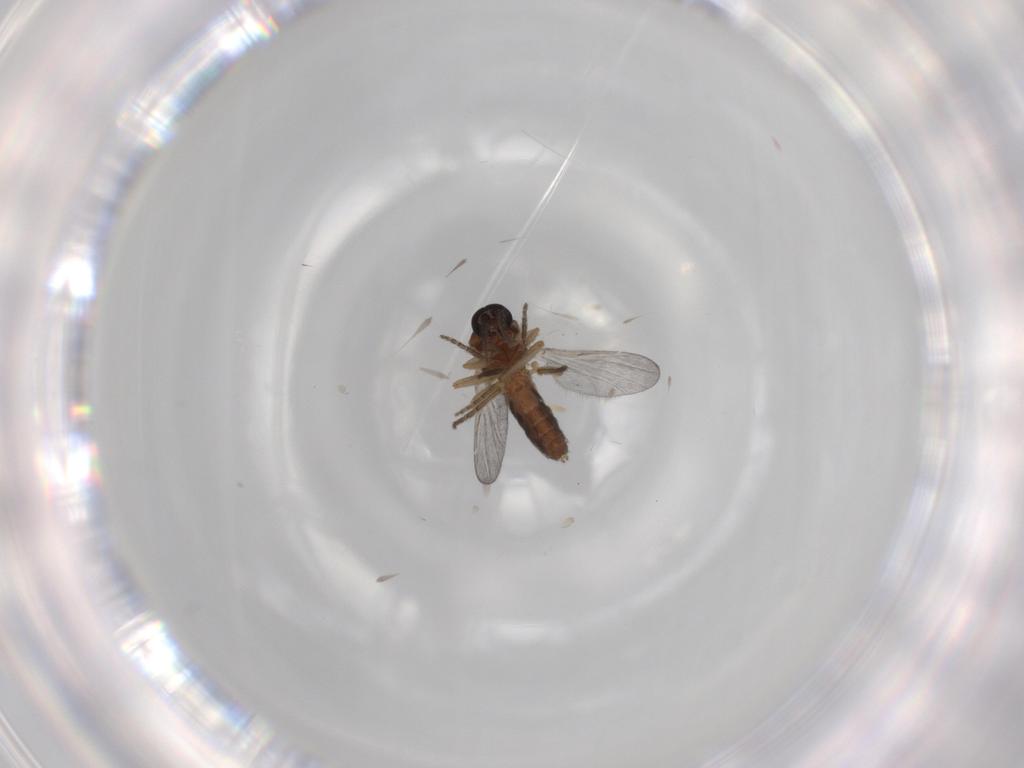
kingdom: Animalia
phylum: Arthropoda
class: Insecta
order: Diptera
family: Ceratopogonidae
